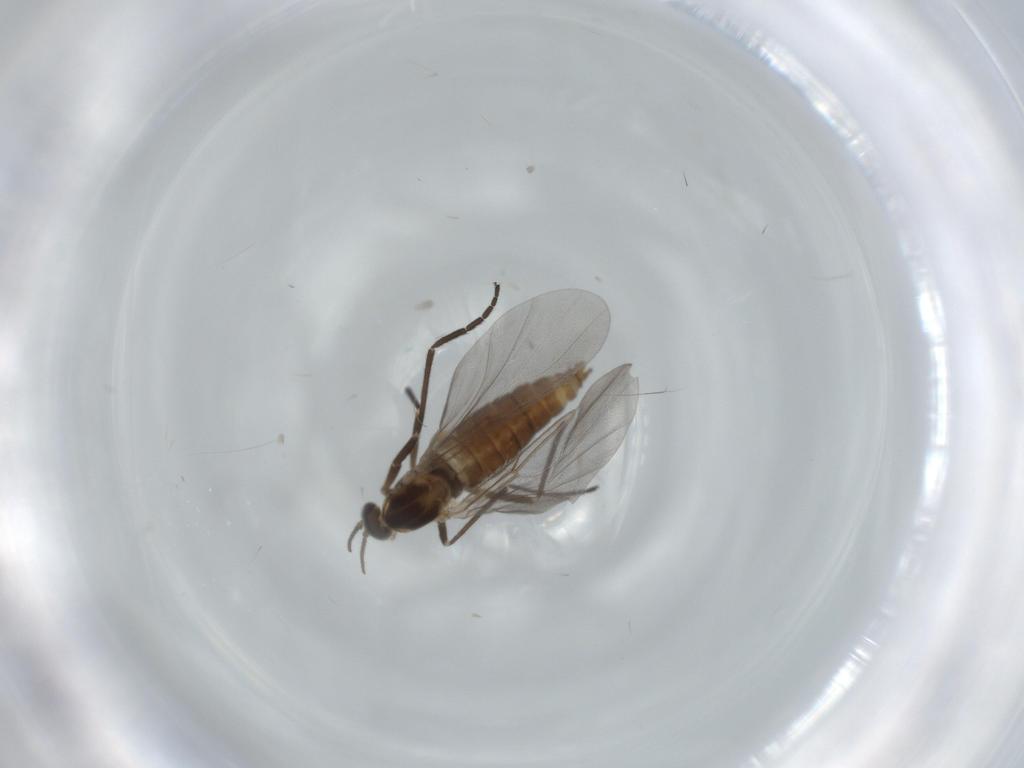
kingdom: Animalia
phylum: Arthropoda
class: Insecta
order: Diptera
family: Cecidomyiidae
